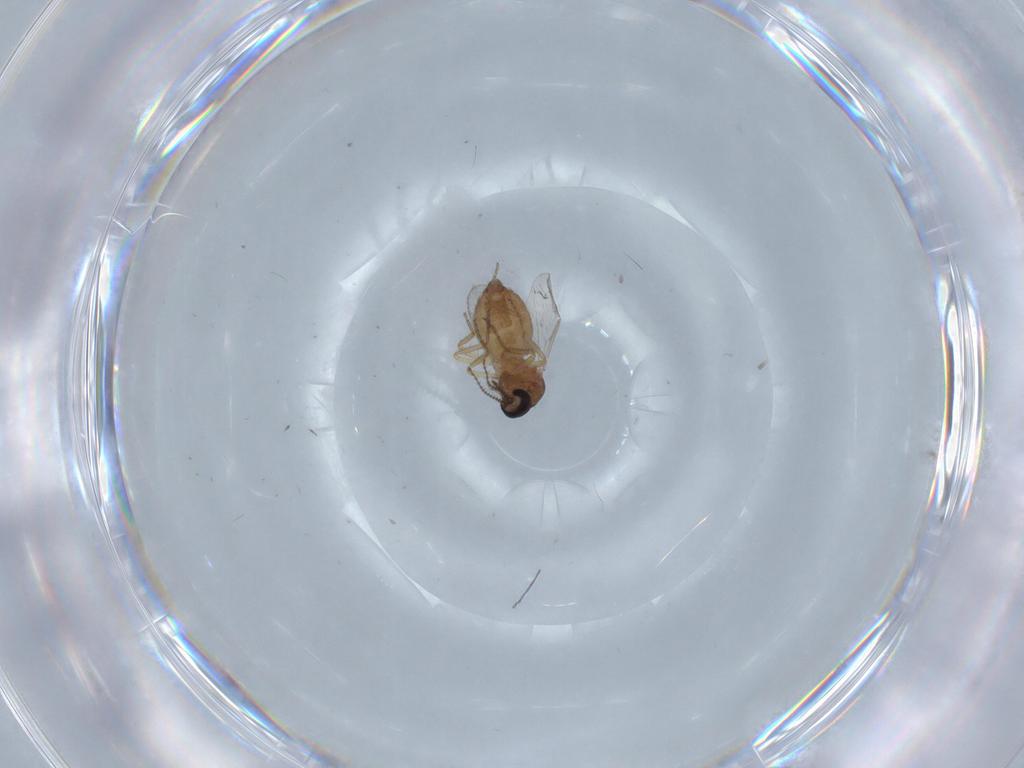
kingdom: Animalia
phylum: Arthropoda
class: Insecta
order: Diptera
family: Ceratopogonidae
